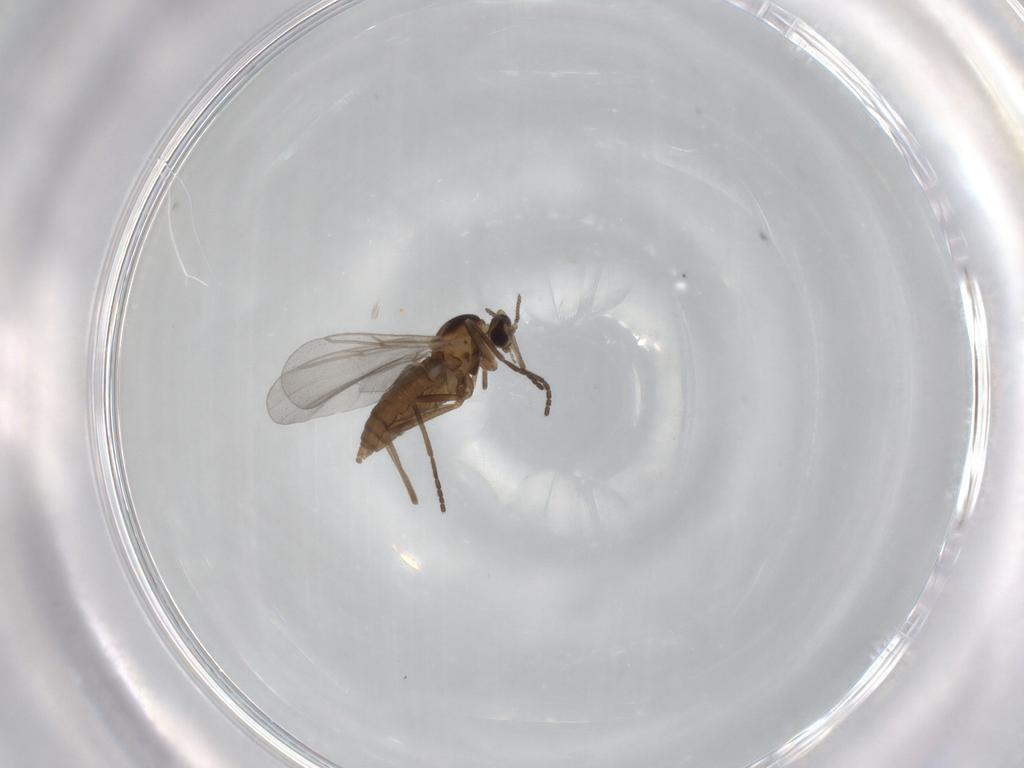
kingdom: Animalia
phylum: Arthropoda
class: Insecta
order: Diptera
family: Cecidomyiidae
